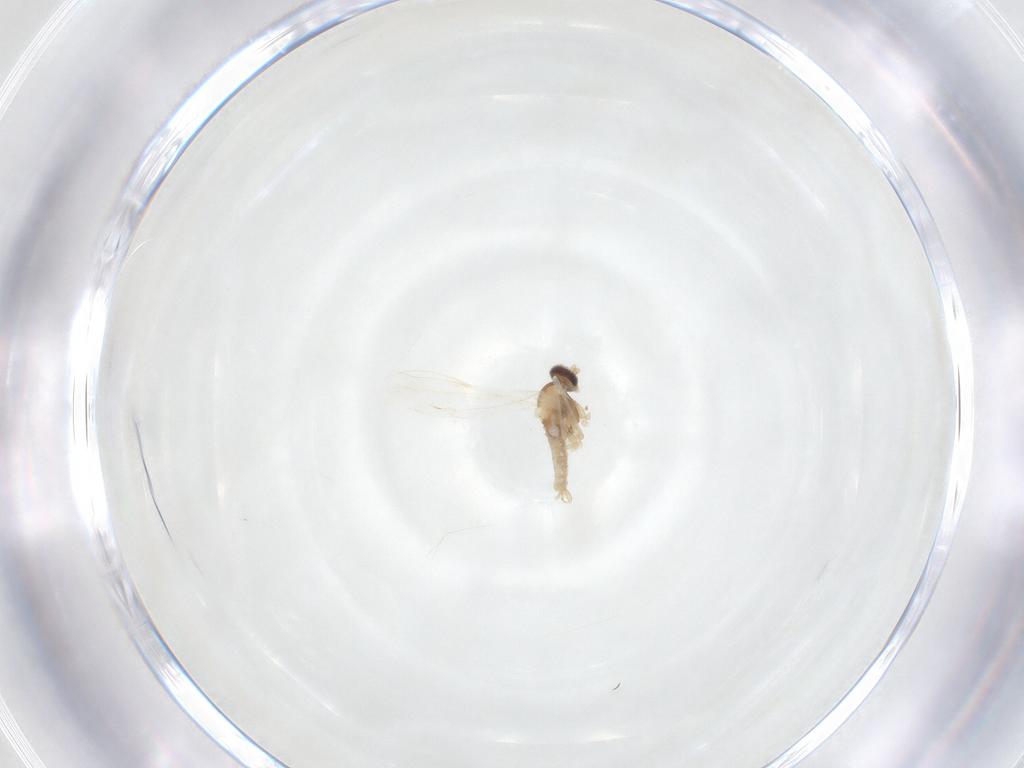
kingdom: Animalia
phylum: Arthropoda
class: Insecta
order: Diptera
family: Cecidomyiidae
